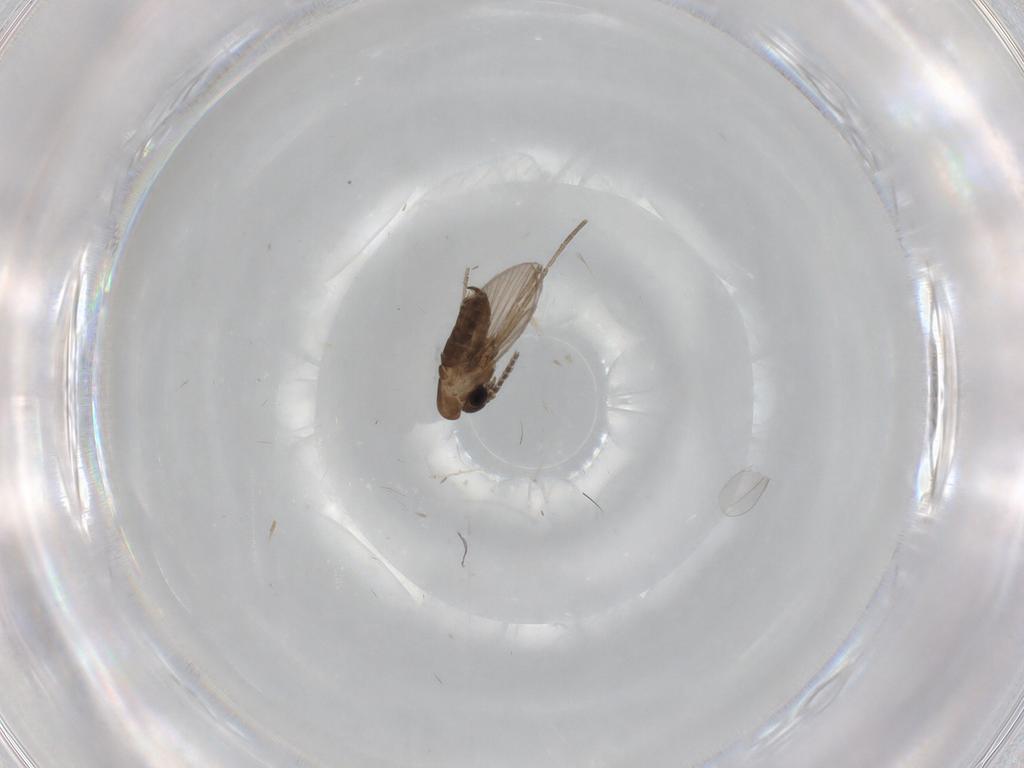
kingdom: Animalia
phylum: Arthropoda
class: Insecta
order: Diptera
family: Cecidomyiidae
